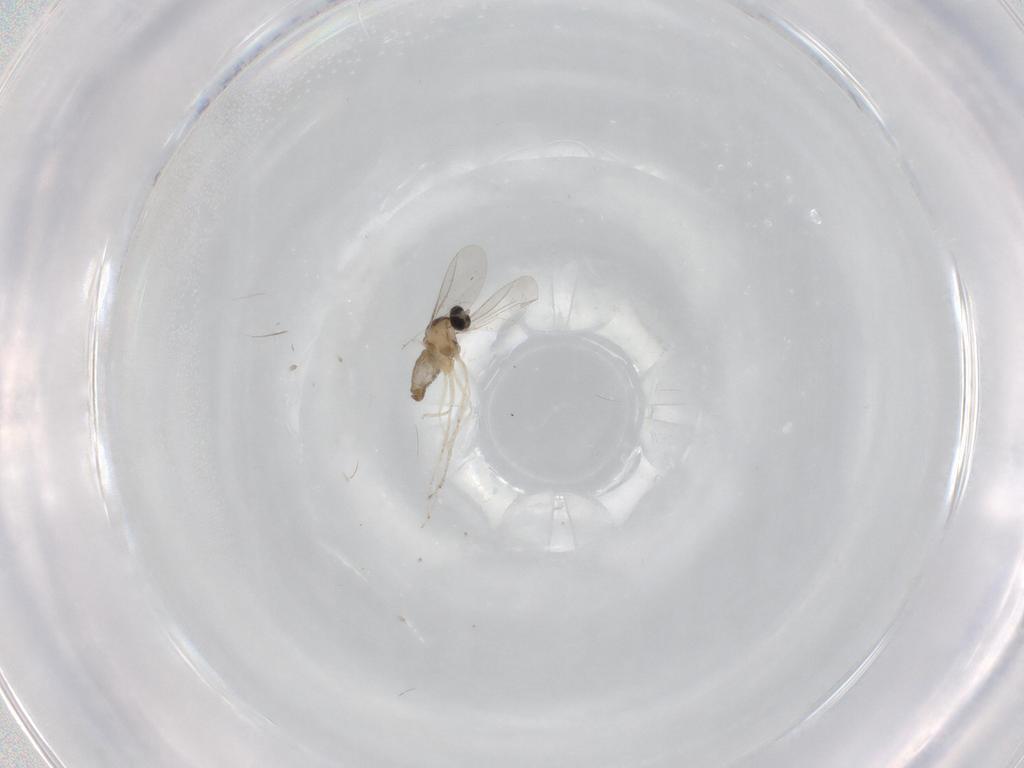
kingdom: Animalia
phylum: Arthropoda
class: Insecta
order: Diptera
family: Cecidomyiidae
